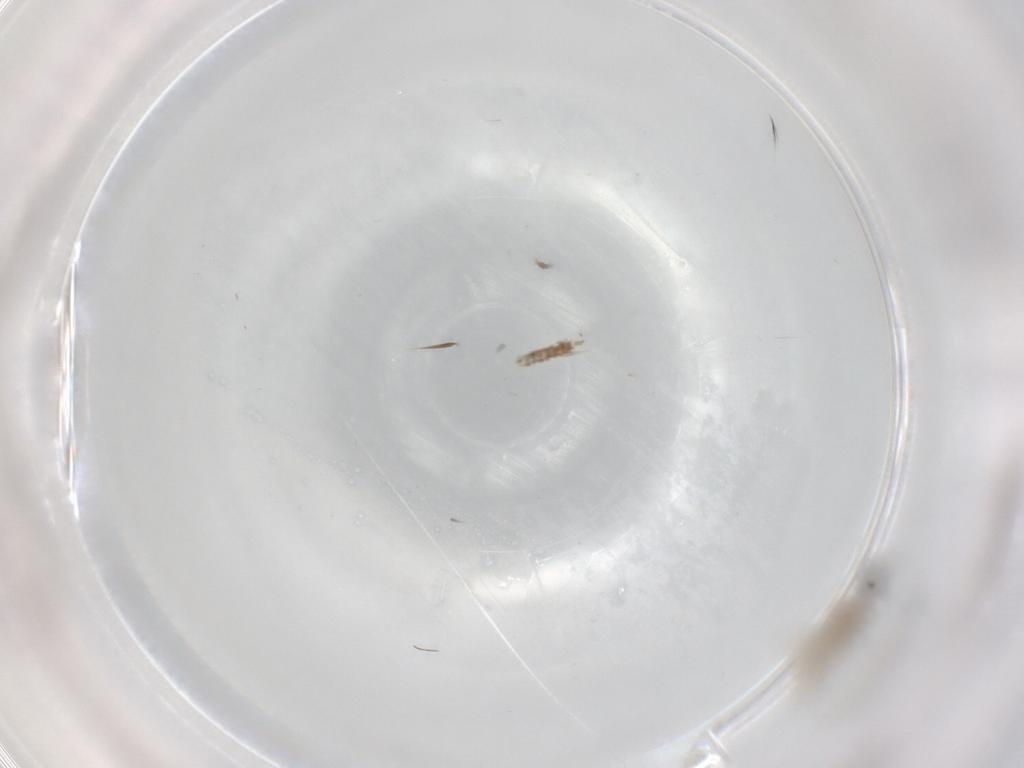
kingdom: Animalia
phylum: Arthropoda
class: Insecta
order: Diptera
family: Cecidomyiidae
